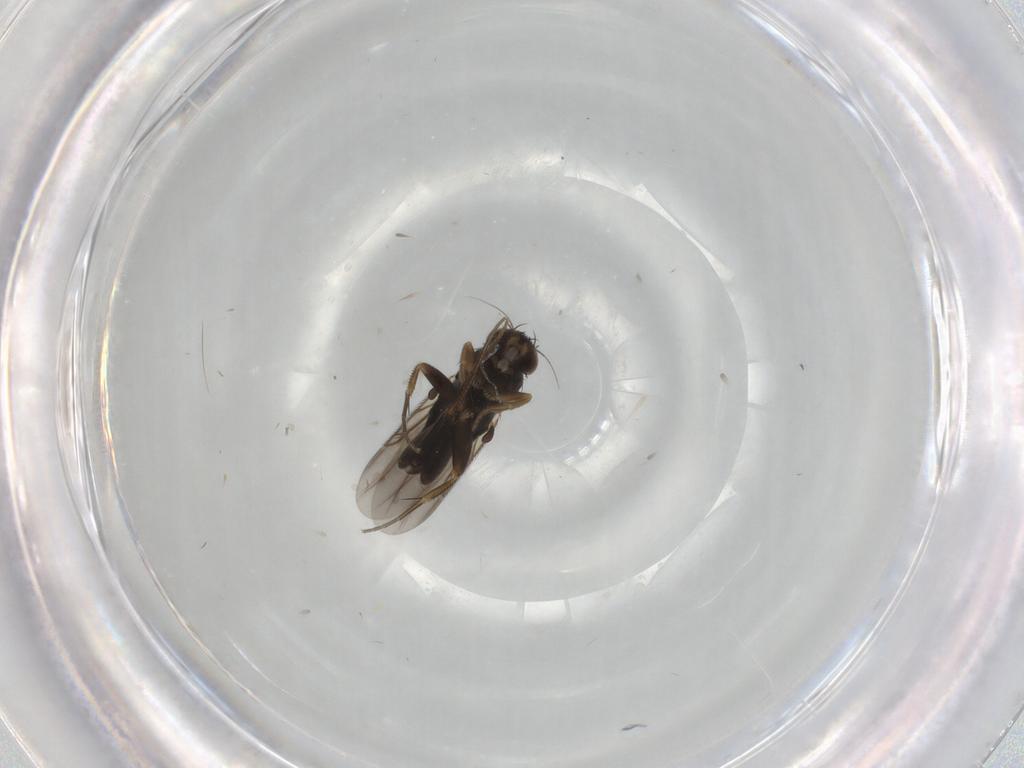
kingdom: Animalia
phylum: Arthropoda
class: Insecta
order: Diptera
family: Phoridae
